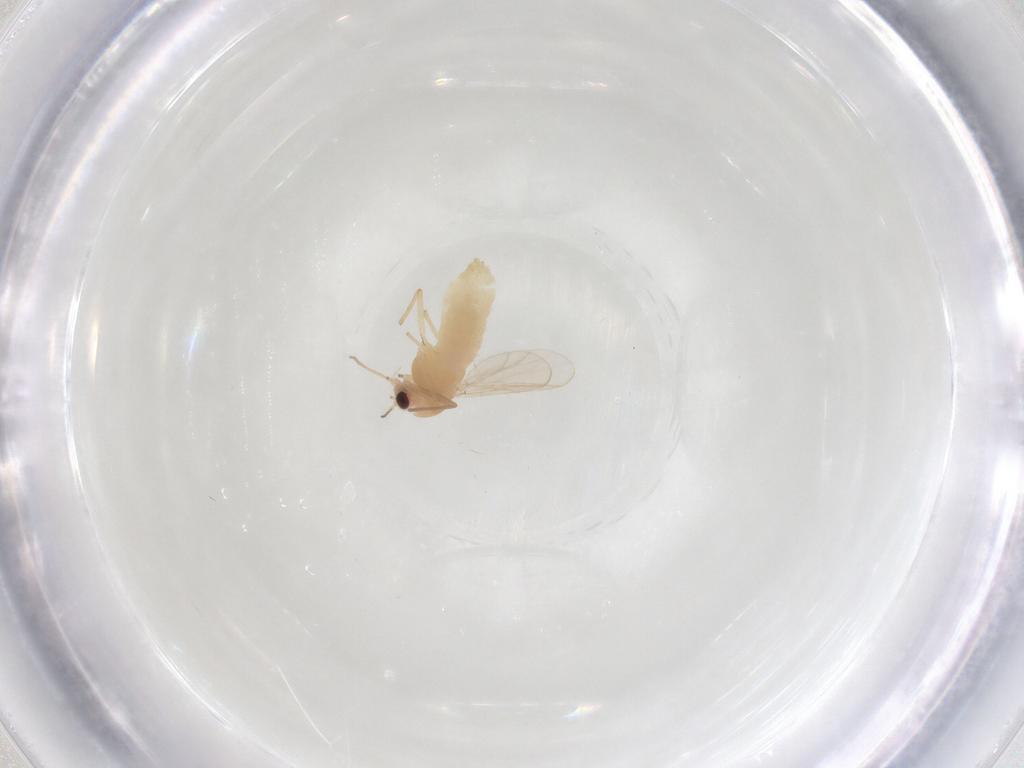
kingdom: Animalia
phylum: Arthropoda
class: Insecta
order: Diptera
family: Chironomidae
